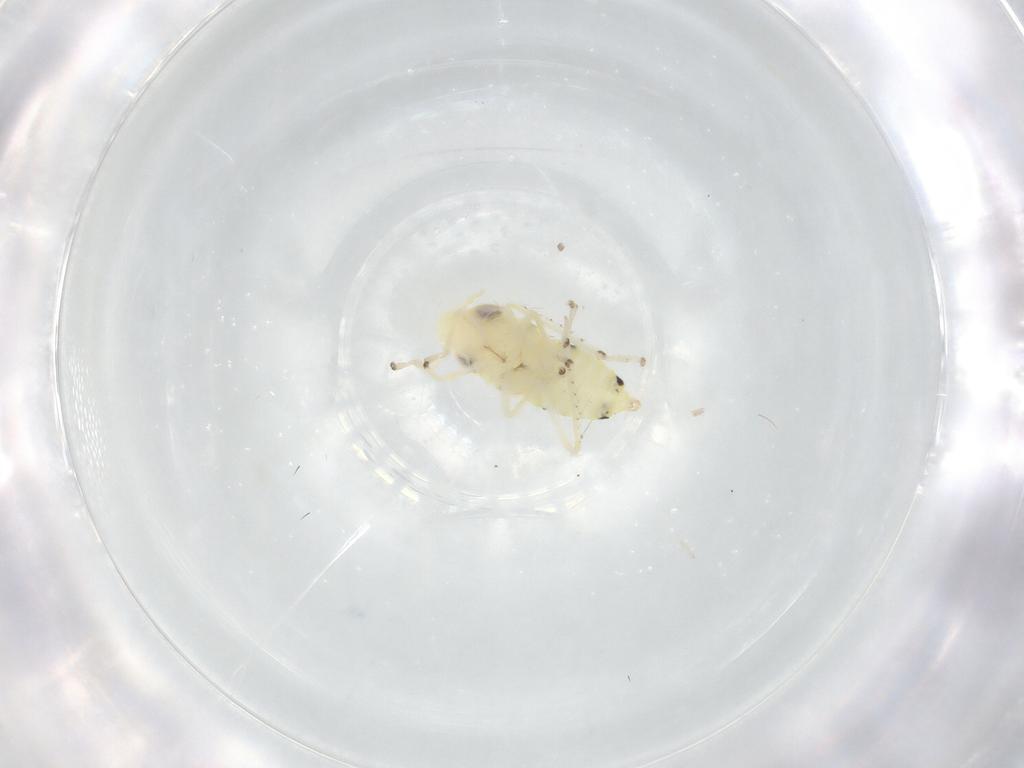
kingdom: Animalia
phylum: Arthropoda
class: Insecta
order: Hemiptera
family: Cicadellidae
